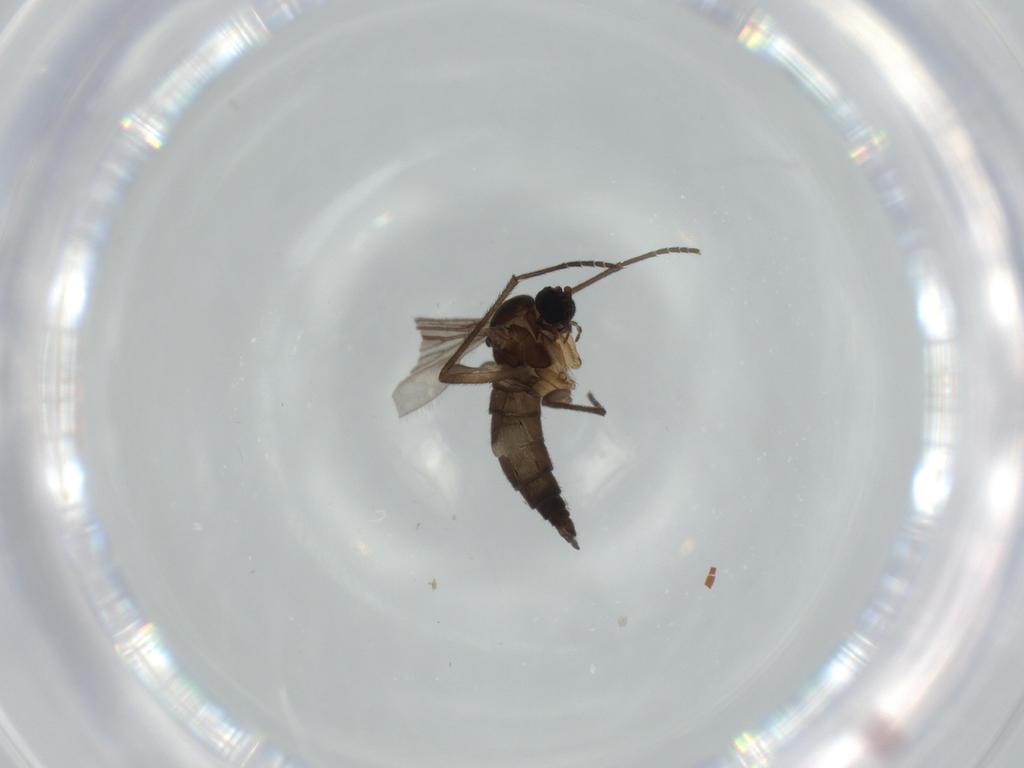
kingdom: Animalia
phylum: Arthropoda
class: Insecta
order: Diptera
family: Sciaridae
